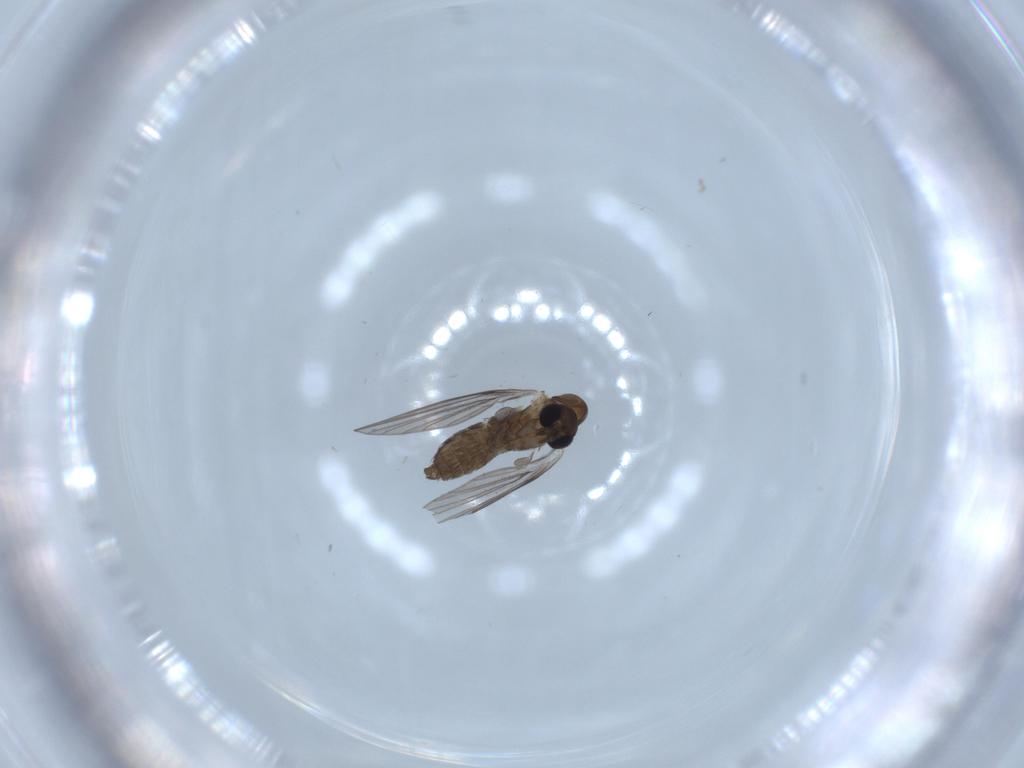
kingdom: Animalia
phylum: Arthropoda
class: Insecta
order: Diptera
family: Psychodidae
